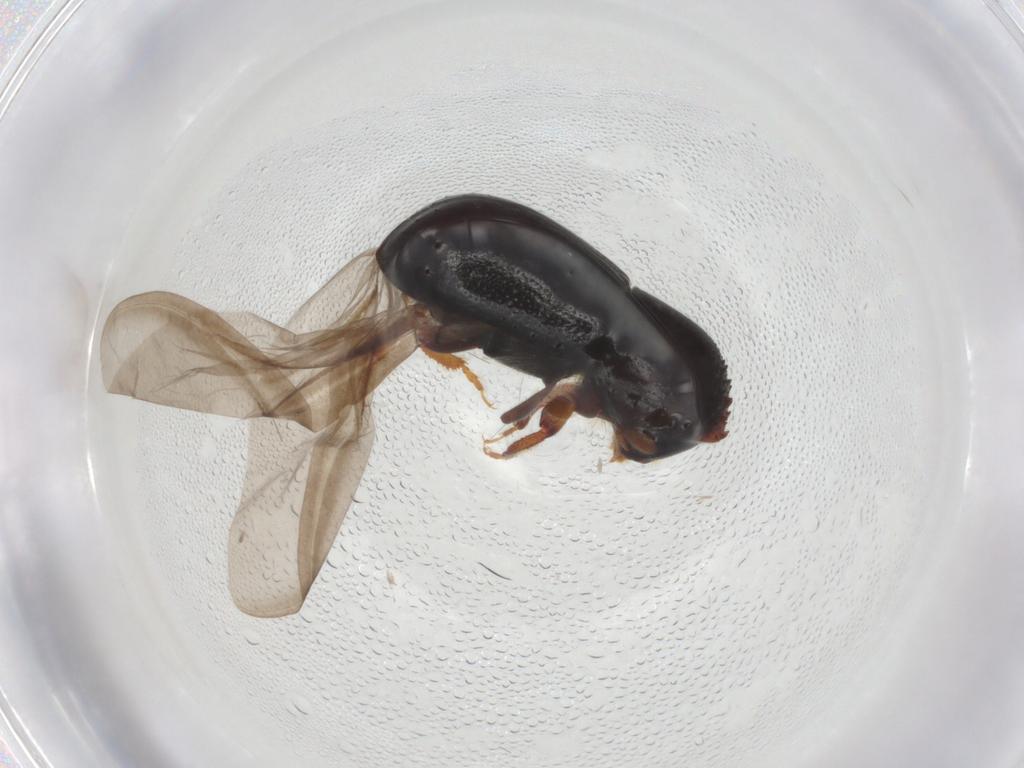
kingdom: Animalia
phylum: Arthropoda
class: Insecta
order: Coleoptera
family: Curculionidae
